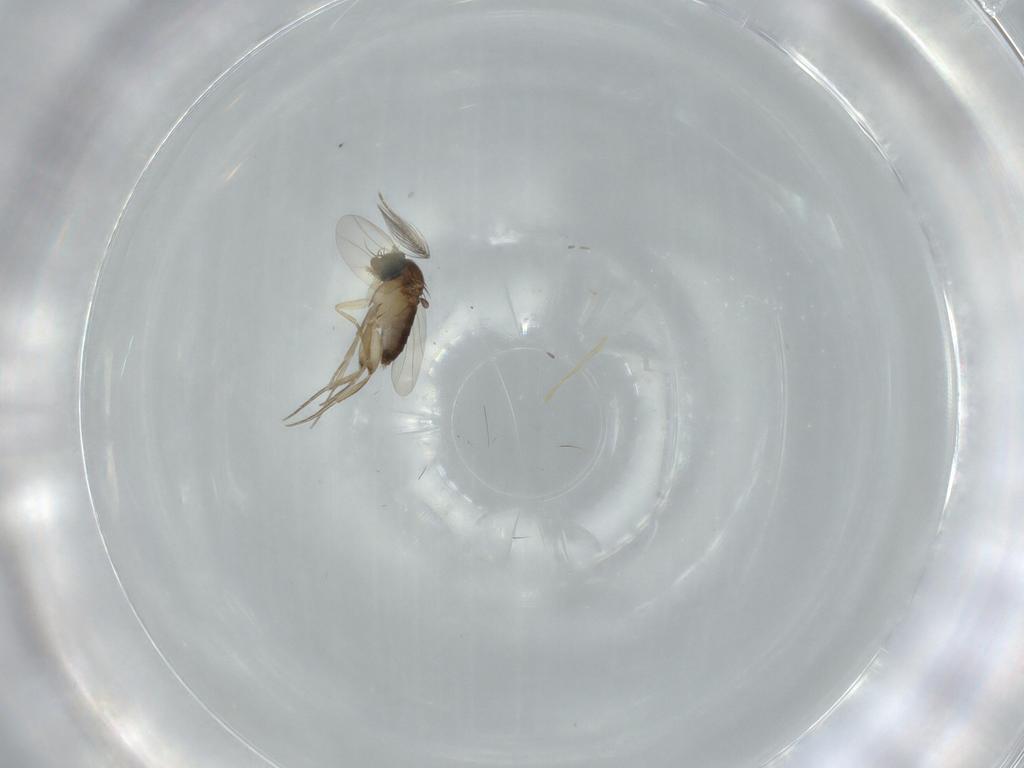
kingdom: Animalia
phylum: Arthropoda
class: Insecta
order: Diptera
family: Phoridae
